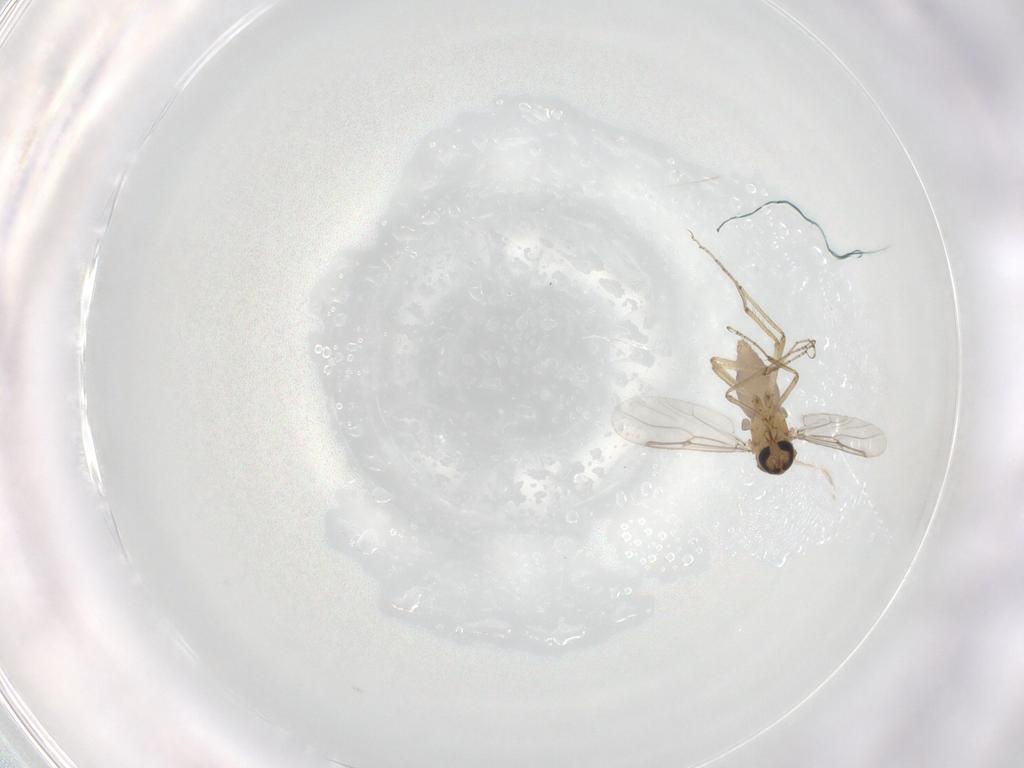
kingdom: Animalia
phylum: Arthropoda
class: Insecta
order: Diptera
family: Ceratopogonidae
